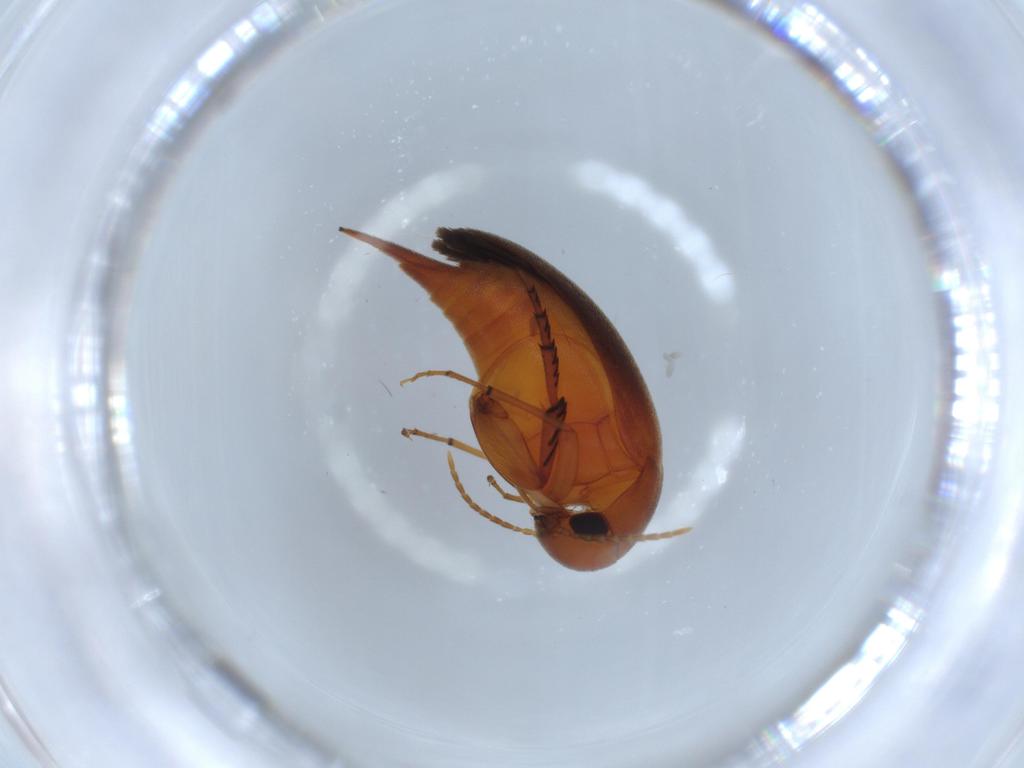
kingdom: Animalia
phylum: Arthropoda
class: Insecta
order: Coleoptera
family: Mordellidae
